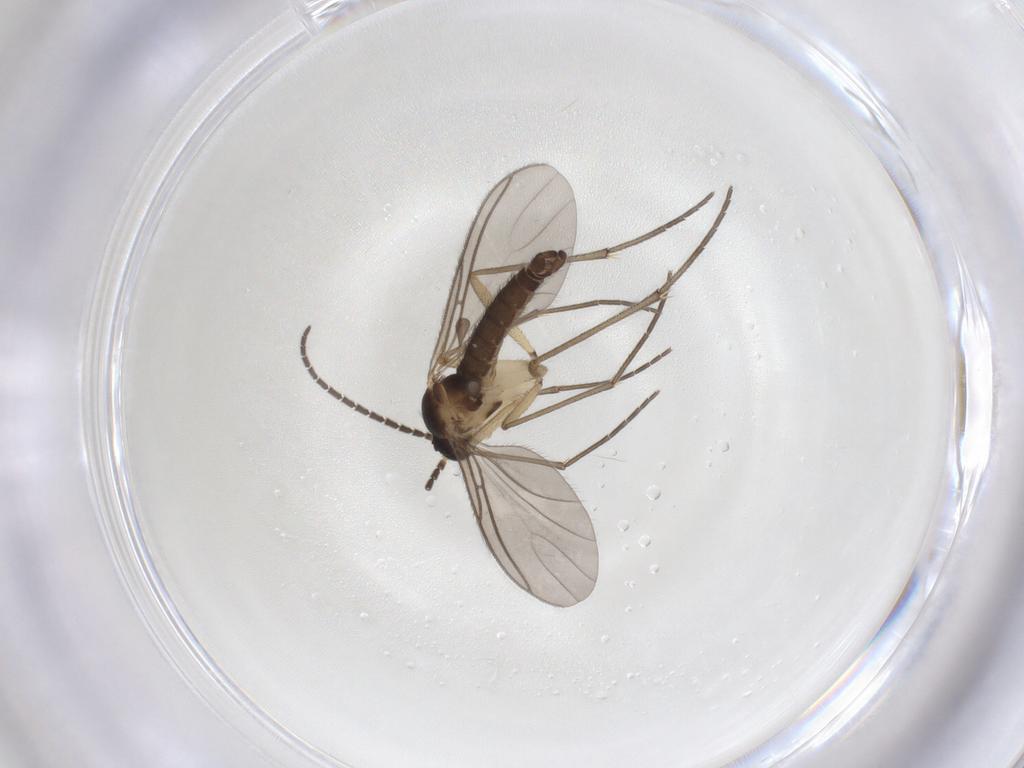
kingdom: Animalia
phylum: Arthropoda
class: Insecta
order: Diptera
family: Sciaridae
